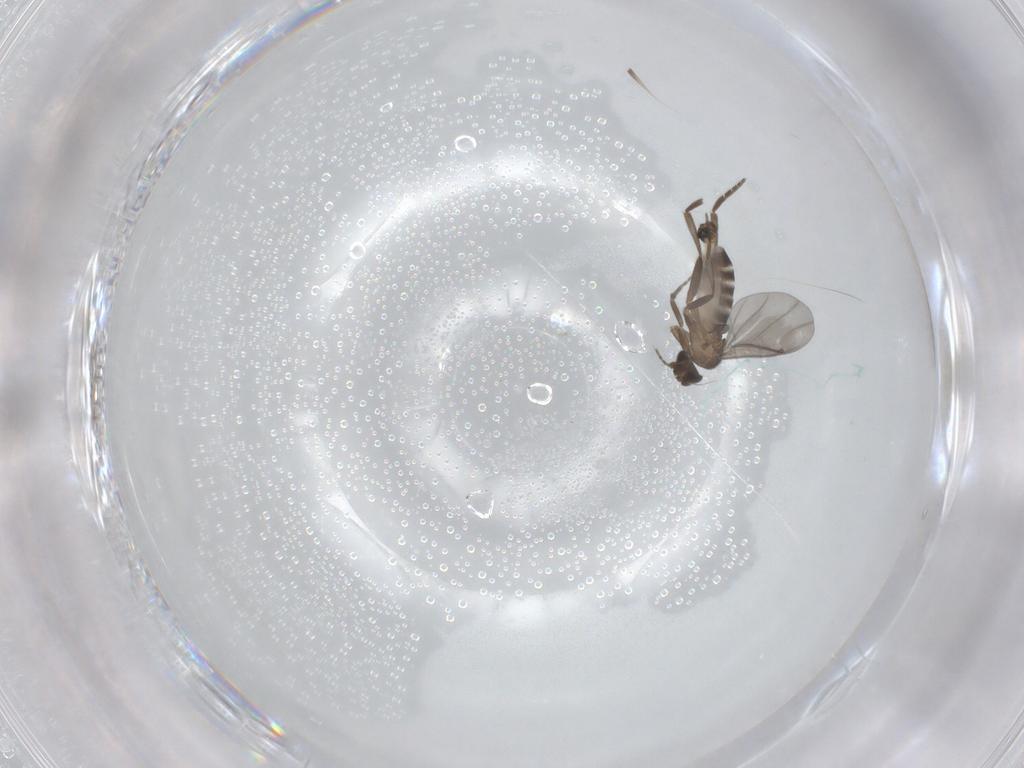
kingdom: Animalia
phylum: Arthropoda
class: Insecta
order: Diptera
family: Phoridae
